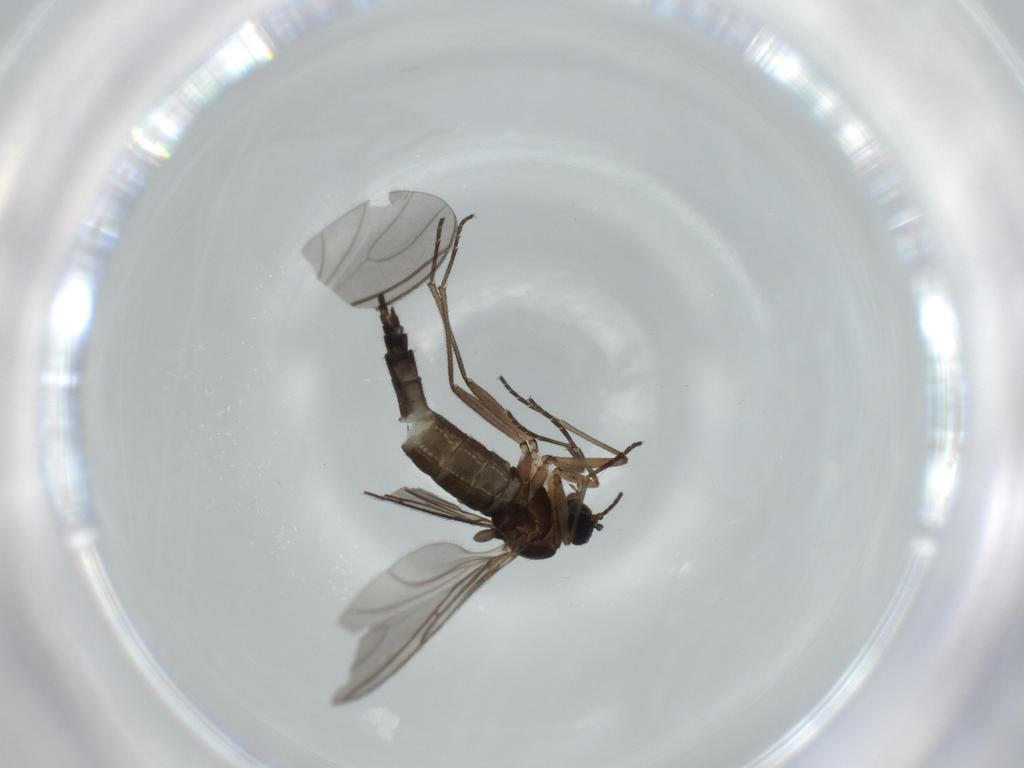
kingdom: Animalia
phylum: Arthropoda
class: Insecta
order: Diptera
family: Sciaridae
